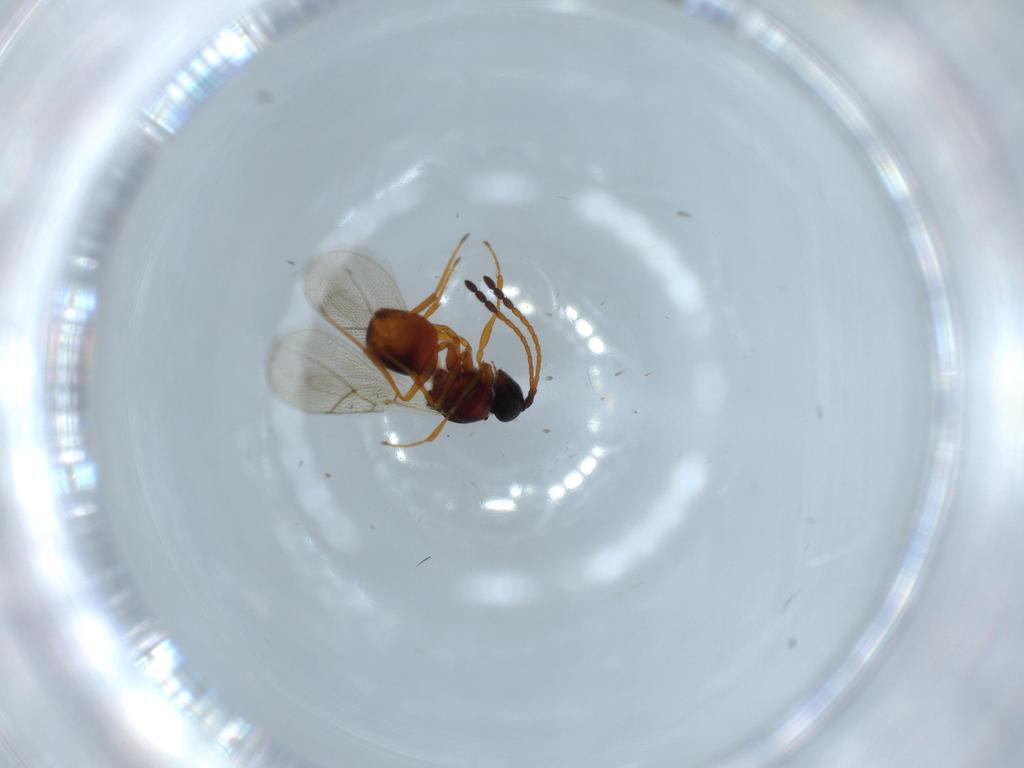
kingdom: Animalia
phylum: Arthropoda
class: Insecta
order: Hymenoptera
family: Figitidae
